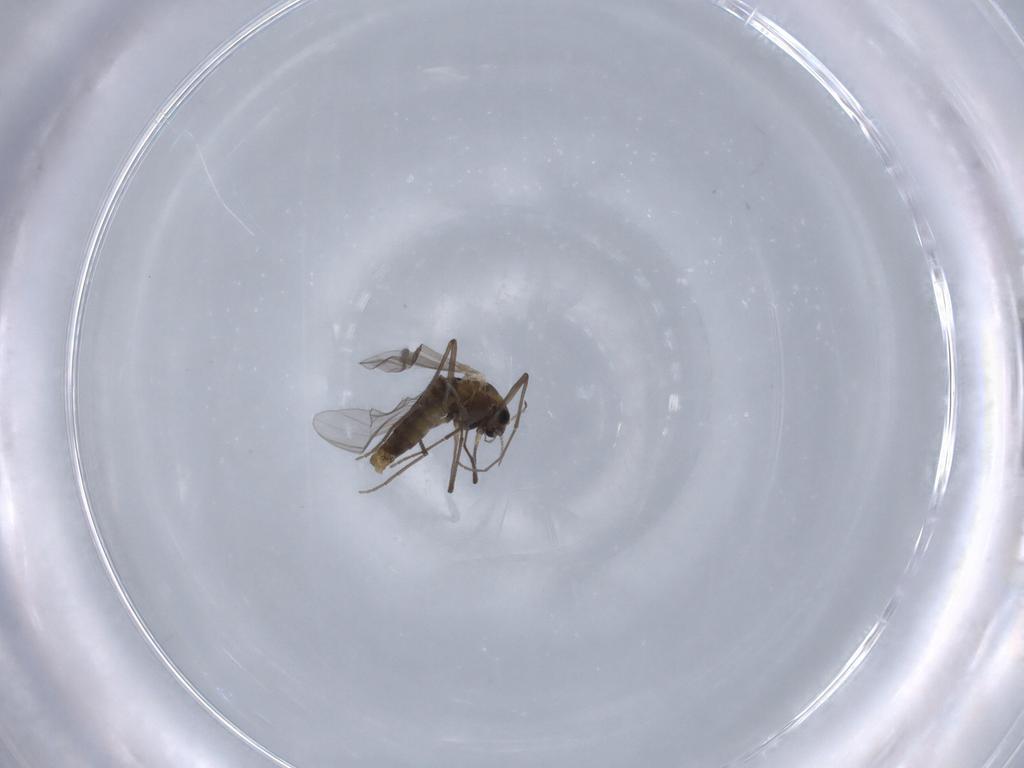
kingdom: Animalia
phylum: Arthropoda
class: Insecta
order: Diptera
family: Chironomidae
